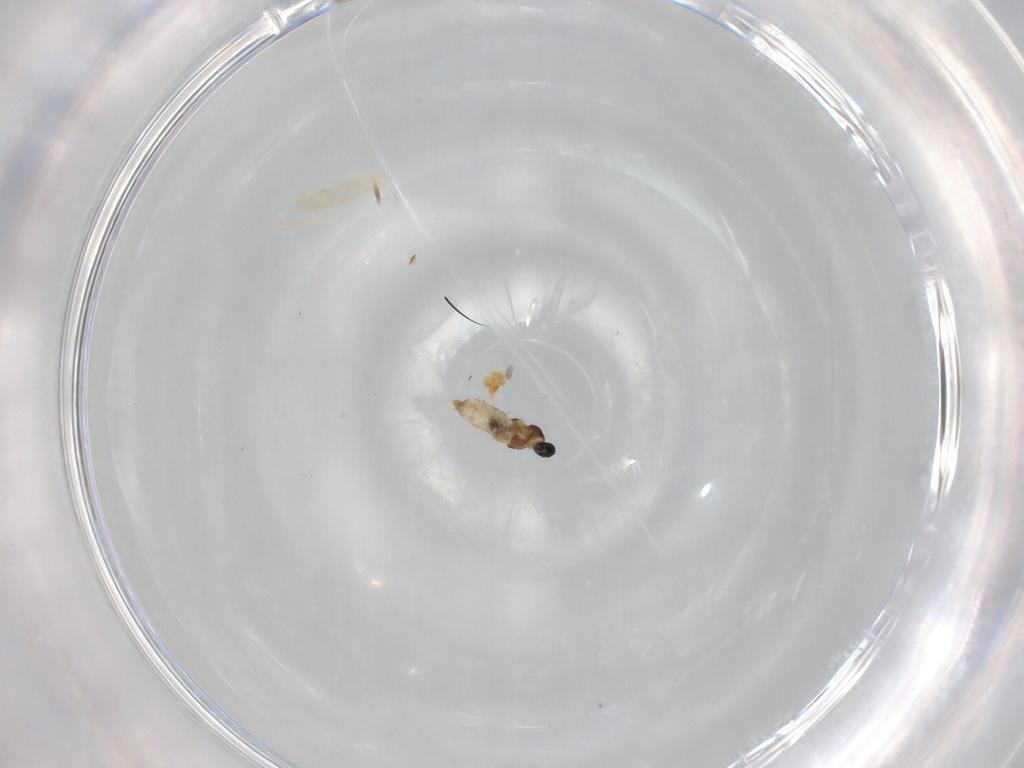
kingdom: Animalia
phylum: Arthropoda
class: Insecta
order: Diptera
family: Cecidomyiidae
